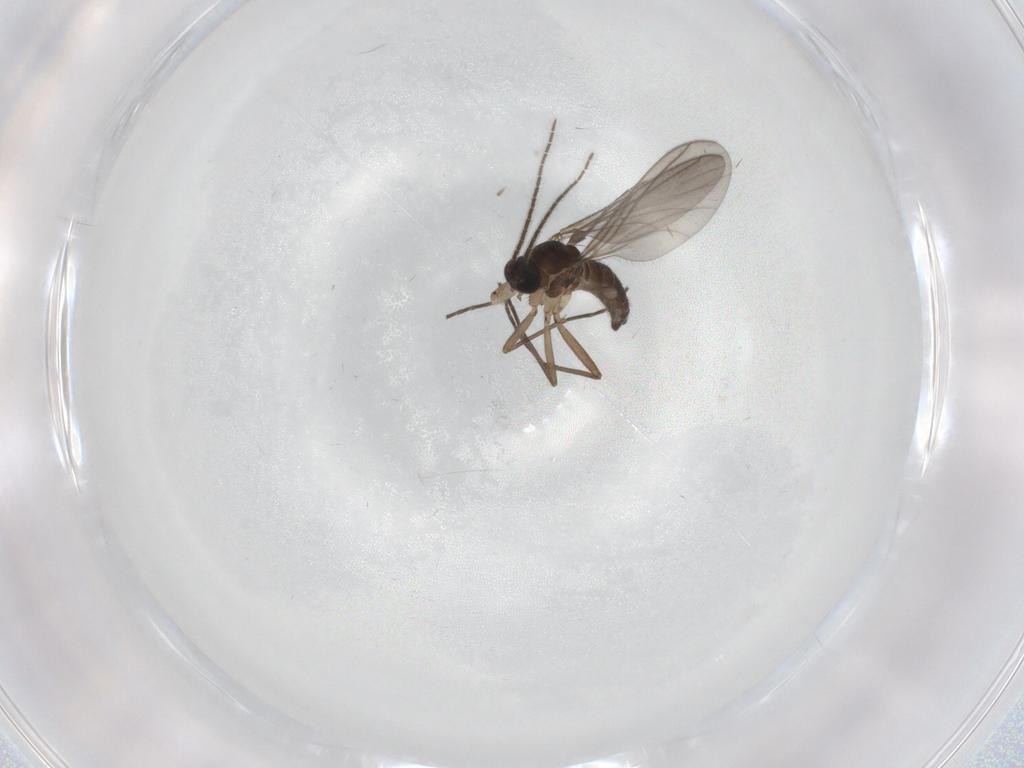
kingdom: Animalia
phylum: Arthropoda
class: Insecta
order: Diptera
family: Sciaridae
